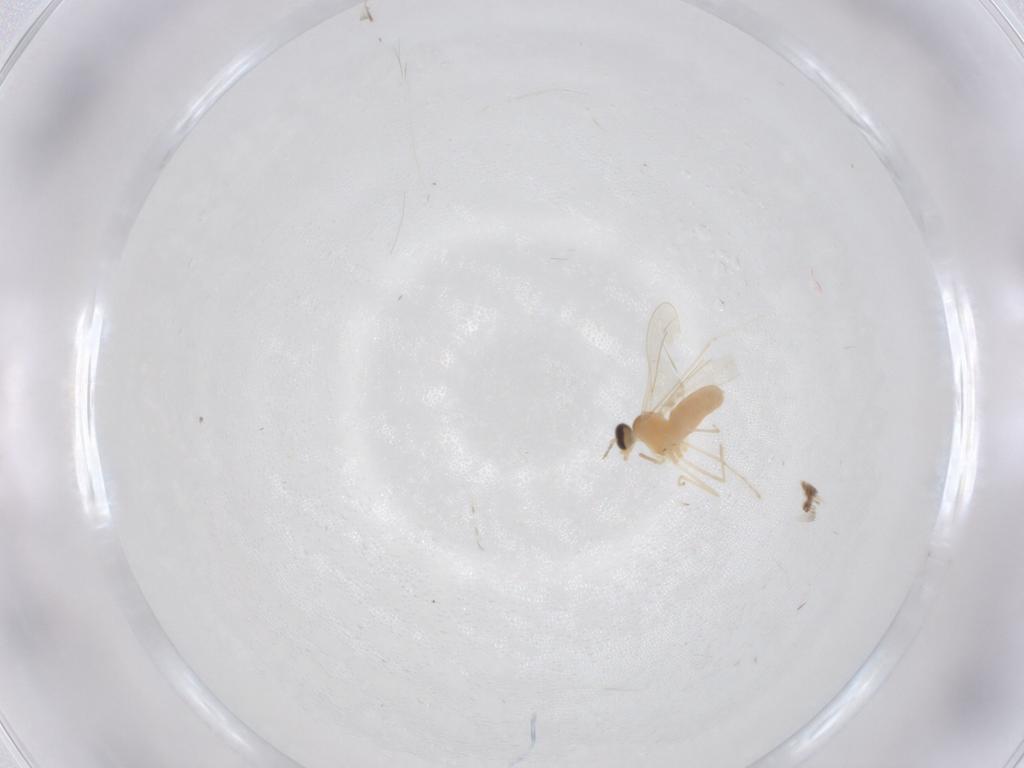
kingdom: Animalia
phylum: Arthropoda
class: Insecta
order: Diptera
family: Cecidomyiidae
